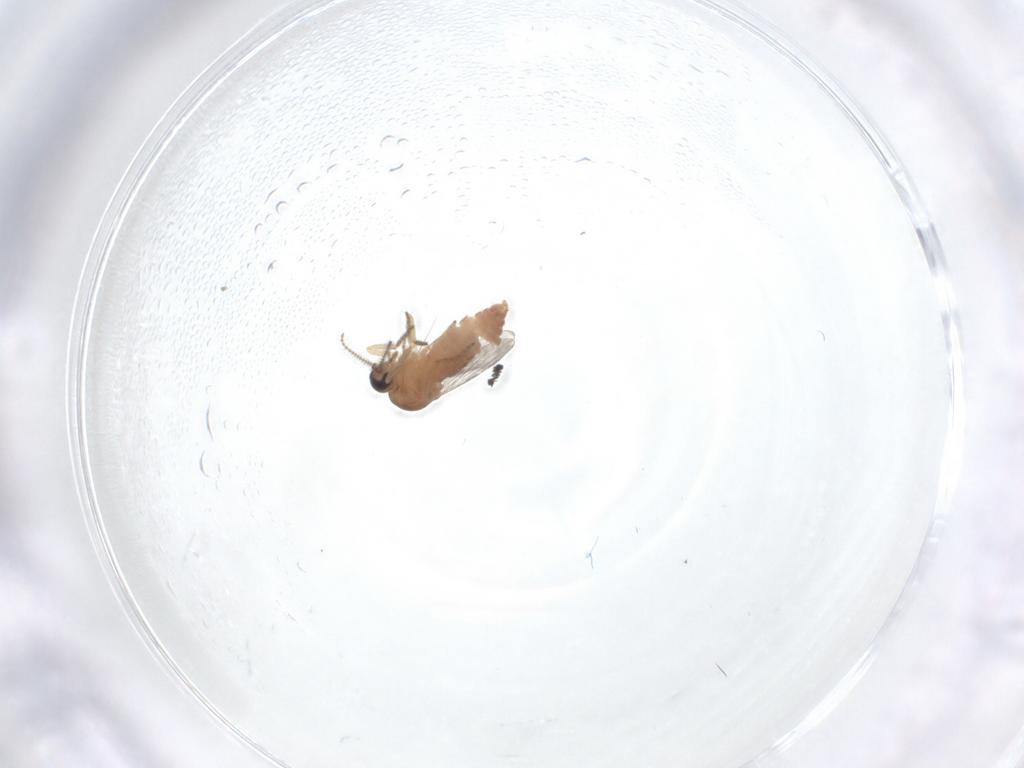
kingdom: Animalia
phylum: Arthropoda
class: Insecta
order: Diptera
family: Ceratopogonidae
